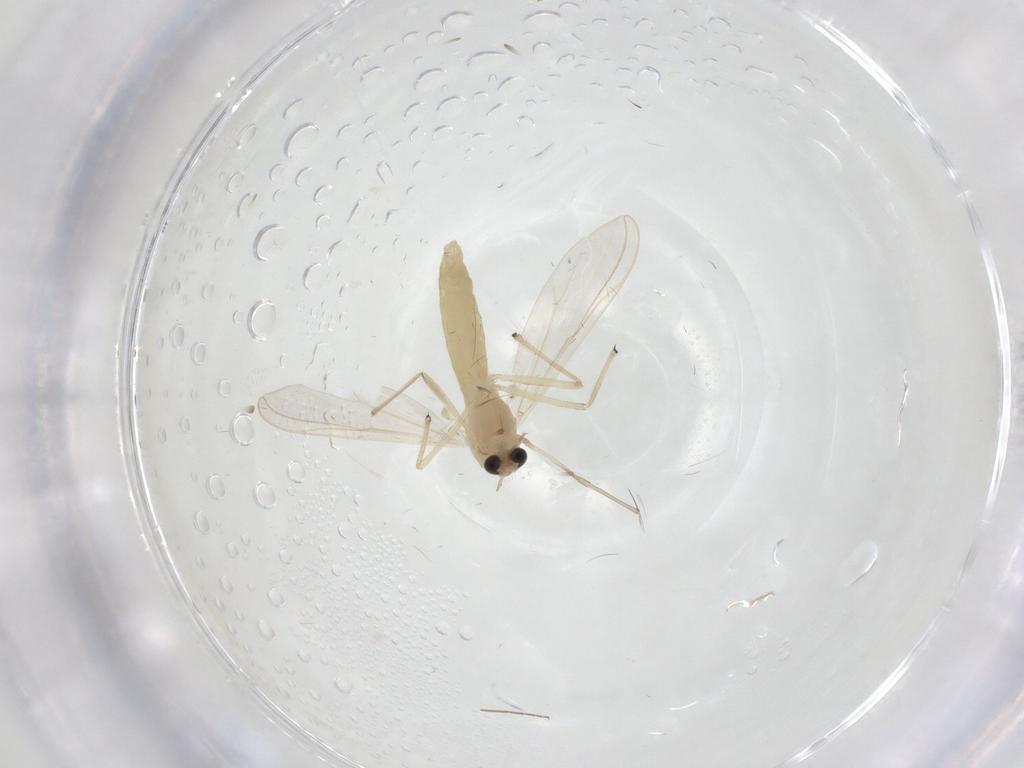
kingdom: Animalia
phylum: Arthropoda
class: Insecta
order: Diptera
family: Chironomidae
